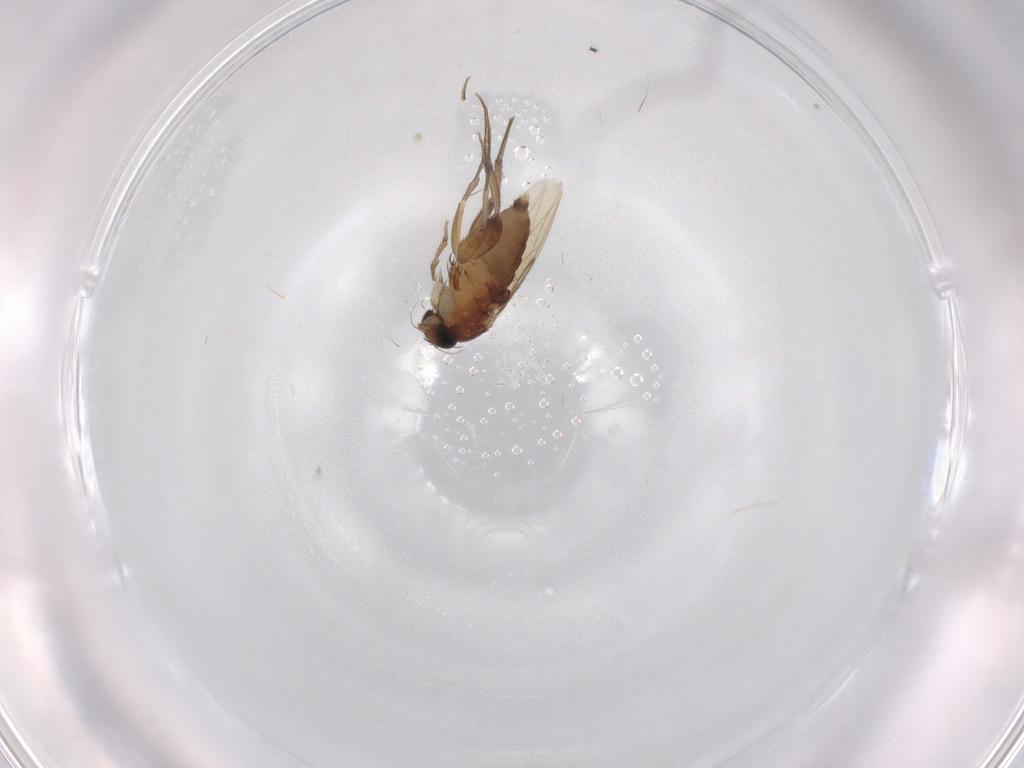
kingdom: Animalia
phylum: Arthropoda
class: Insecta
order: Diptera
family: Phoridae
